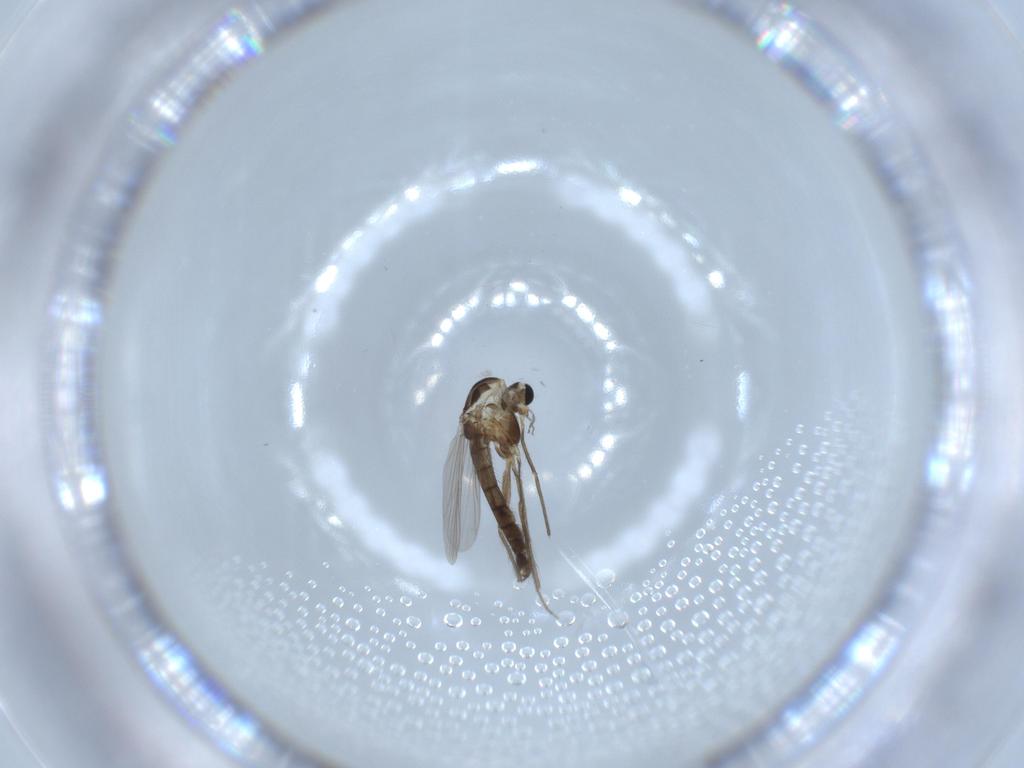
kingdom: Animalia
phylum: Arthropoda
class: Insecta
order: Diptera
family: Chironomidae
